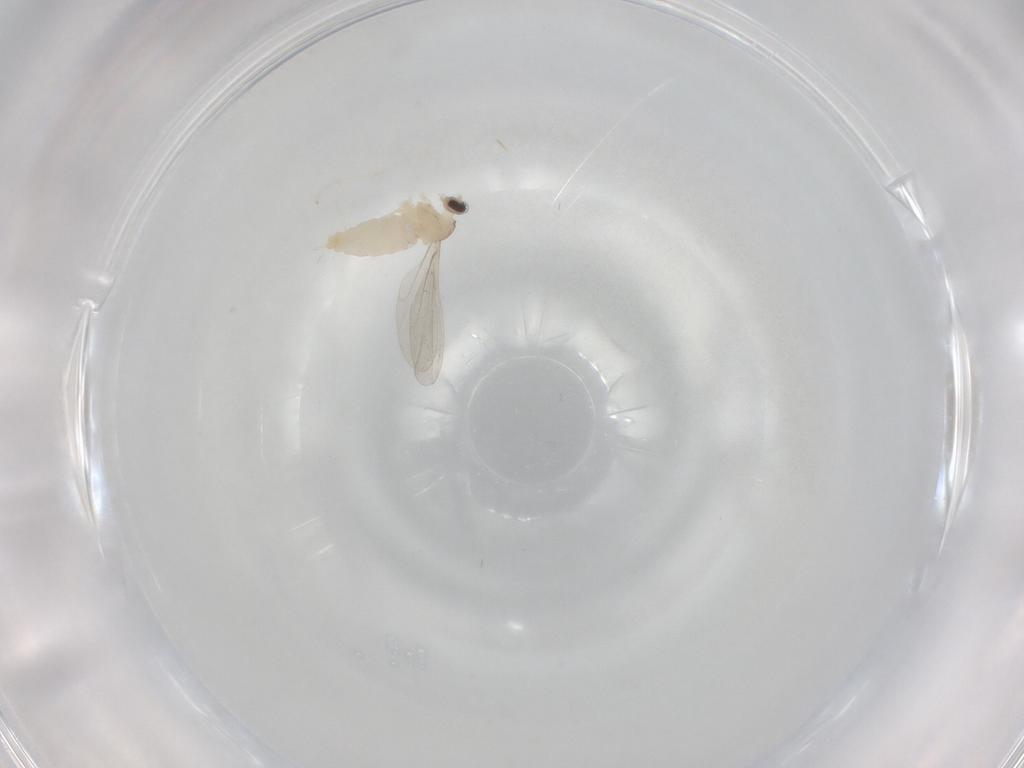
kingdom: Animalia
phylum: Arthropoda
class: Insecta
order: Diptera
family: Cecidomyiidae
